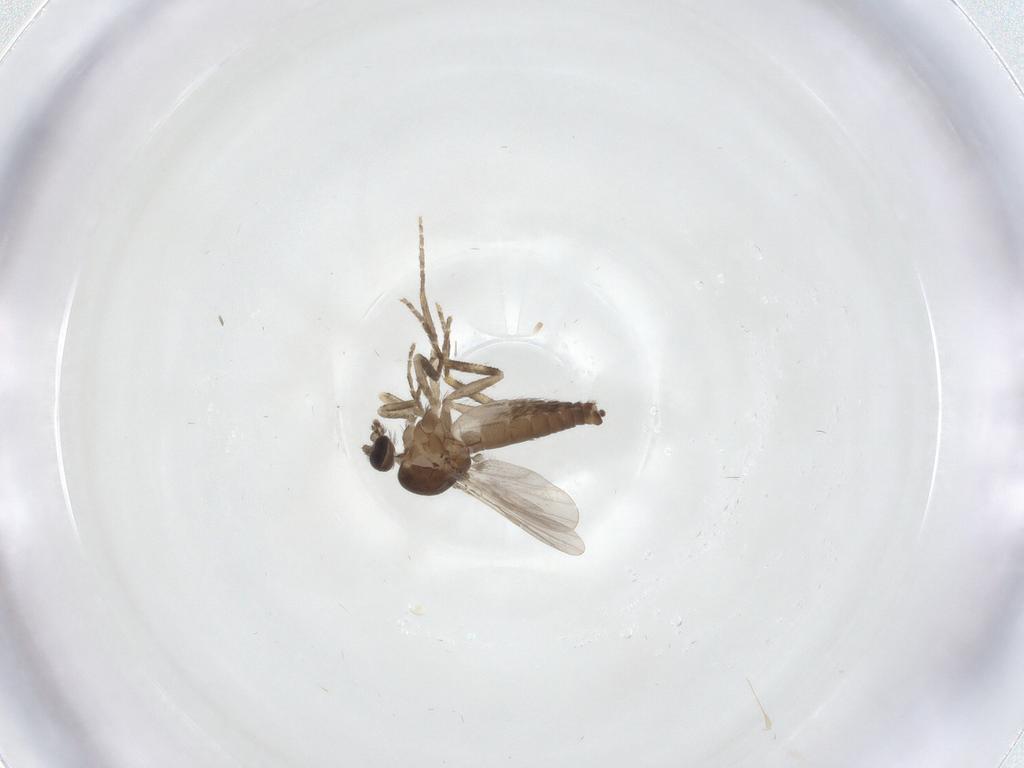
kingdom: Animalia
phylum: Arthropoda
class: Insecta
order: Diptera
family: Ceratopogonidae
